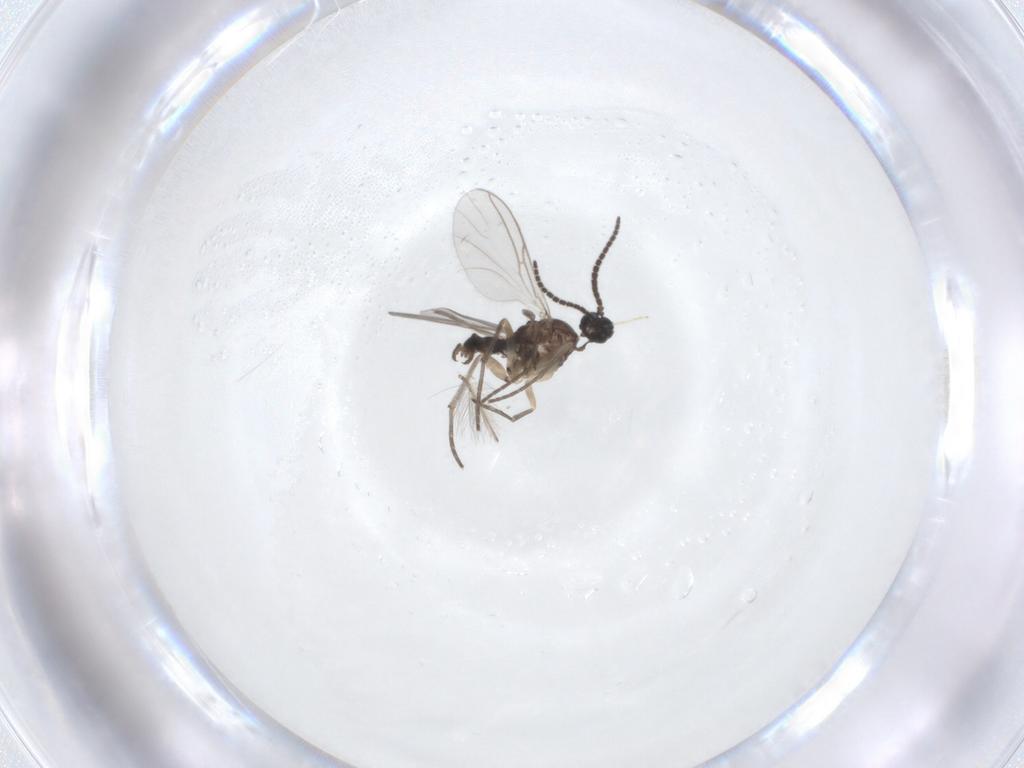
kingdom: Animalia
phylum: Arthropoda
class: Insecta
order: Diptera
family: Sciaridae
